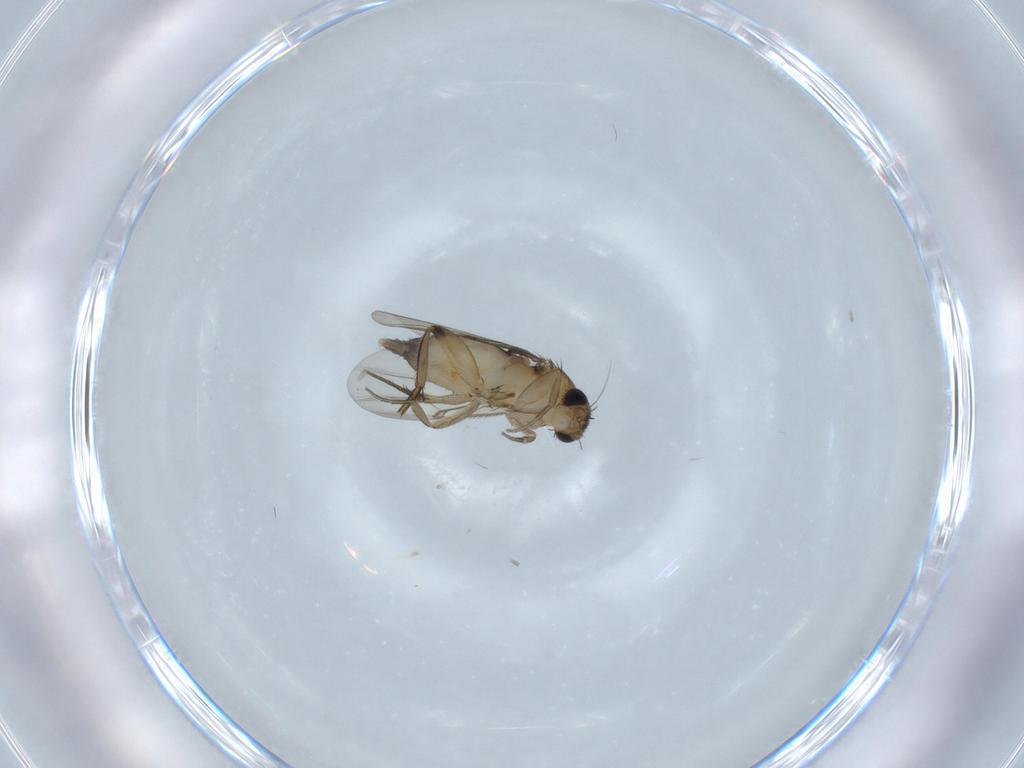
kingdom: Animalia
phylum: Arthropoda
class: Insecta
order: Diptera
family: Phoridae
